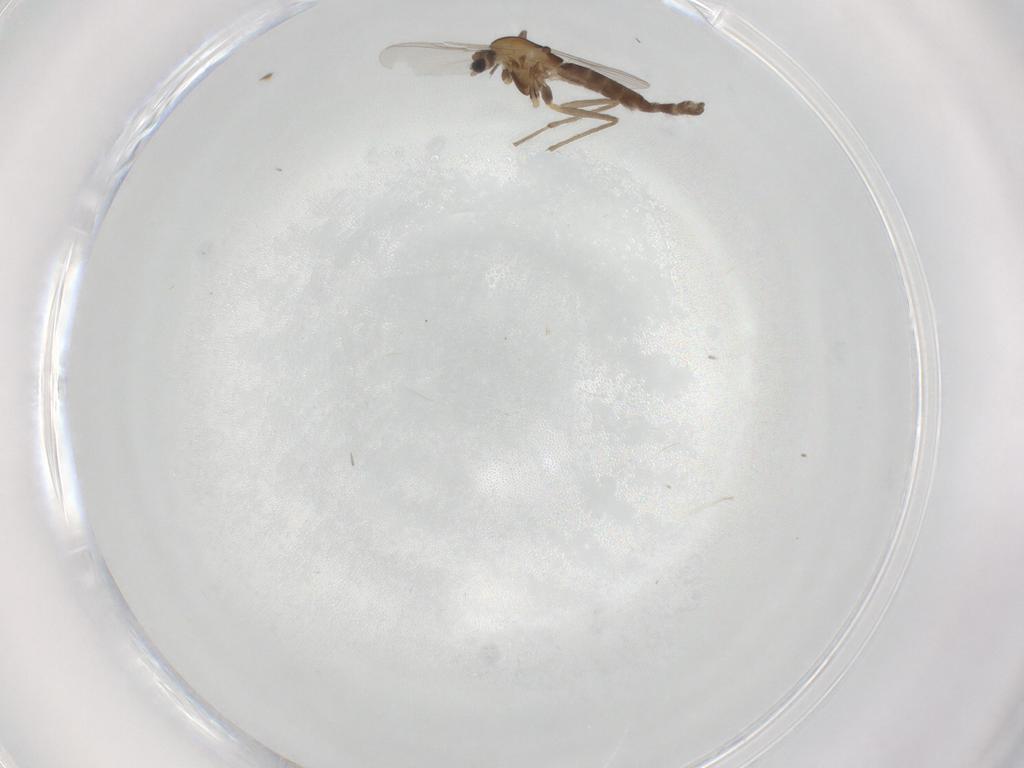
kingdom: Animalia
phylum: Arthropoda
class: Insecta
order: Diptera
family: Chironomidae
